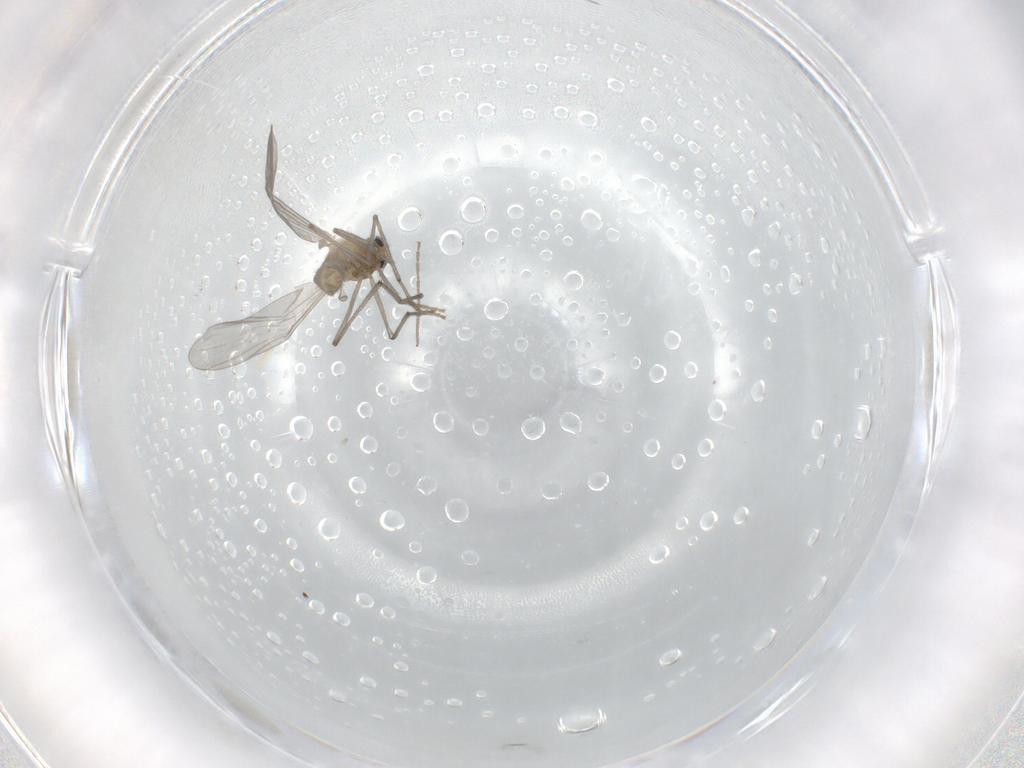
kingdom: Animalia
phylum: Arthropoda
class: Insecta
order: Diptera
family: Chironomidae
